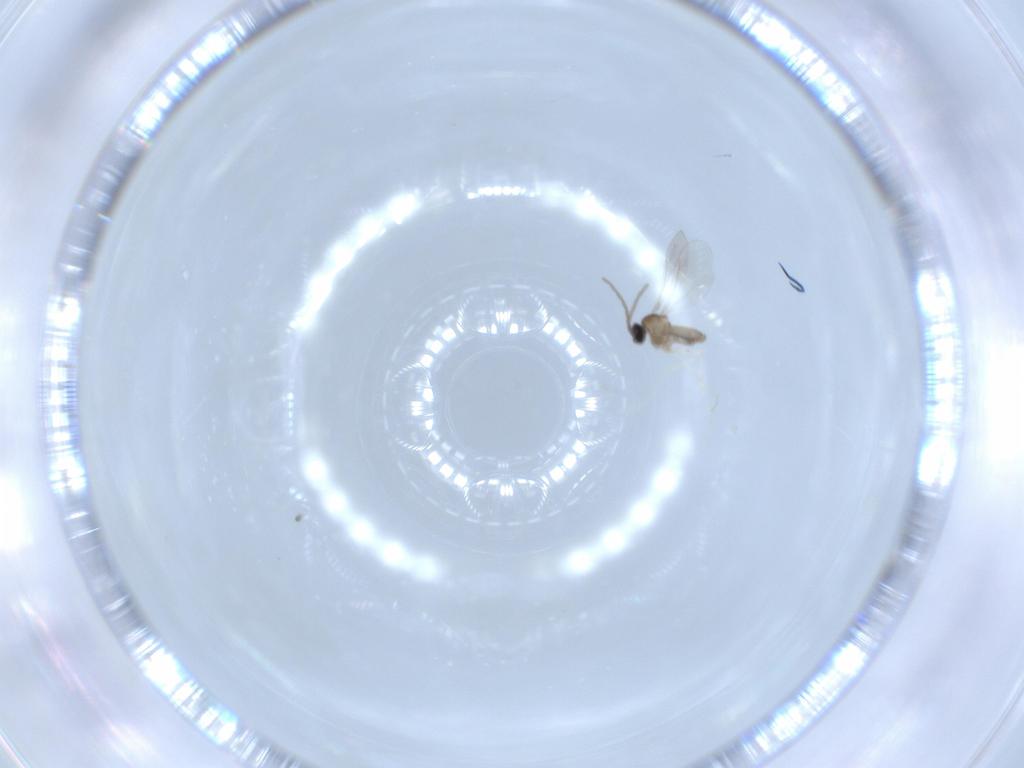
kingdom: Animalia
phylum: Arthropoda
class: Insecta
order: Diptera
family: Cecidomyiidae
